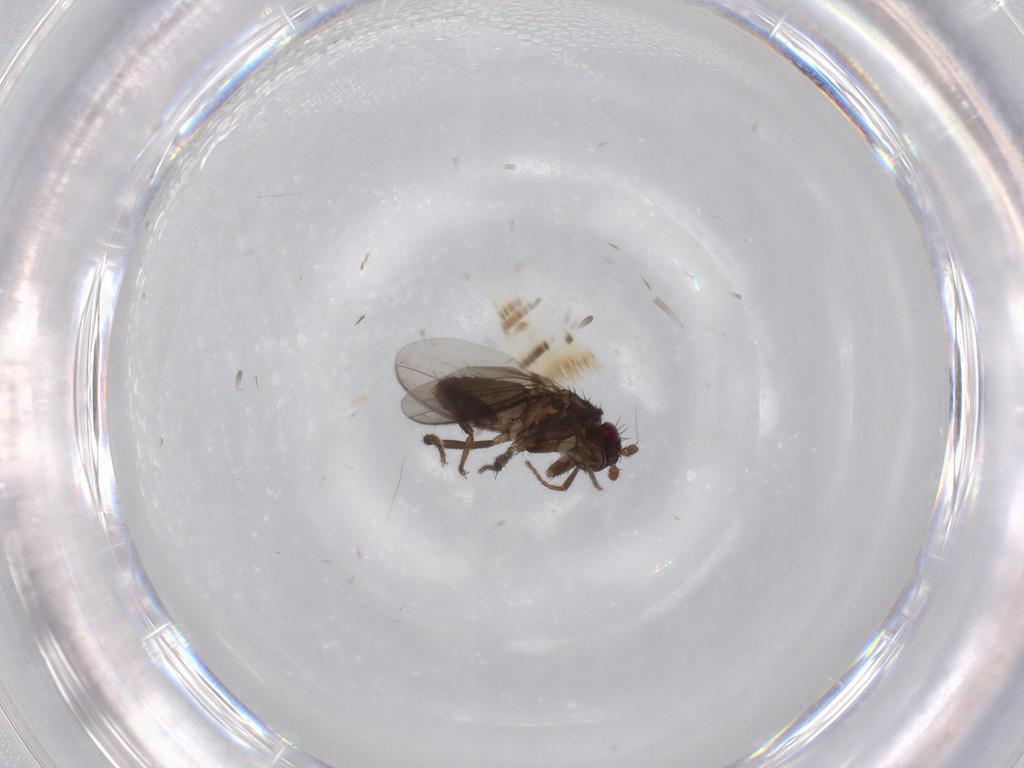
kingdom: Animalia
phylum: Arthropoda
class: Insecta
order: Diptera
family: Sphaeroceridae
